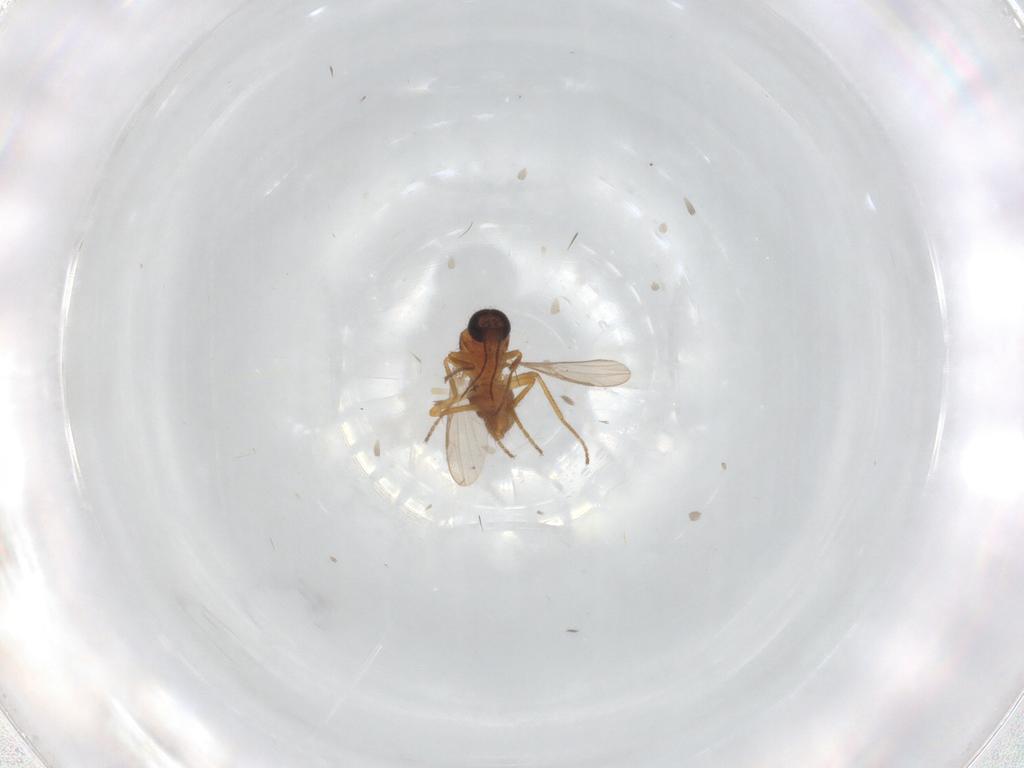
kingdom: Animalia
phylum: Arthropoda
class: Insecta
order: Diptera
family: Ceratopogonidae
